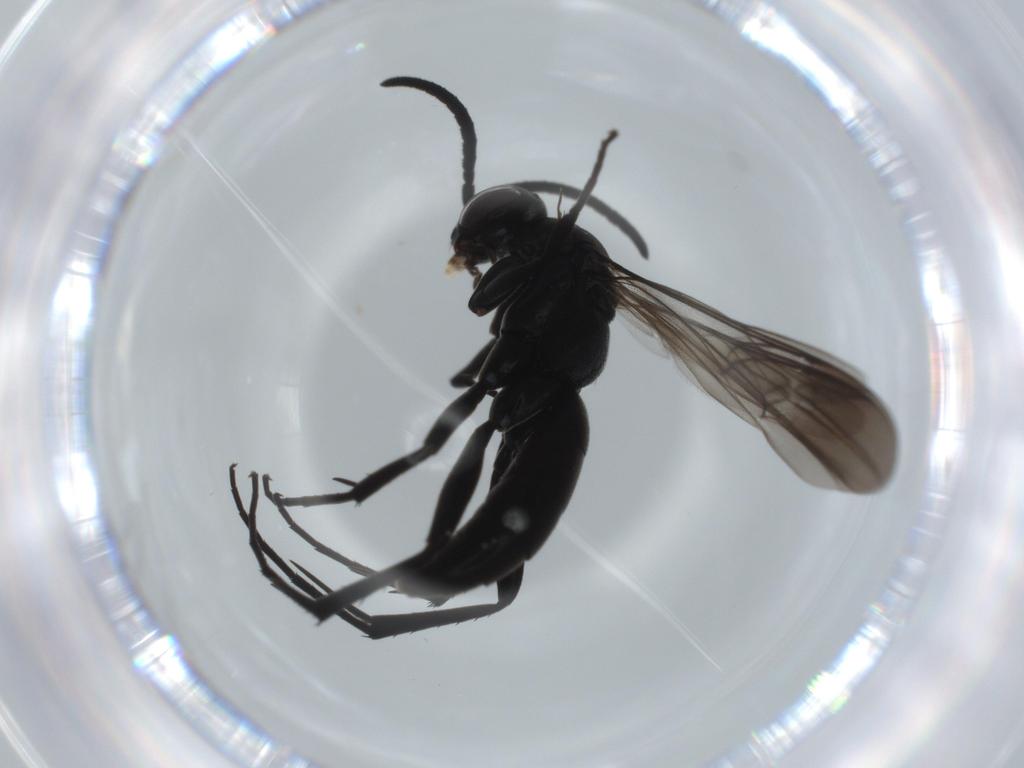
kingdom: Animalia
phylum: Arthropoda
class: Insecta
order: Hymenoptera
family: Pompilidae
